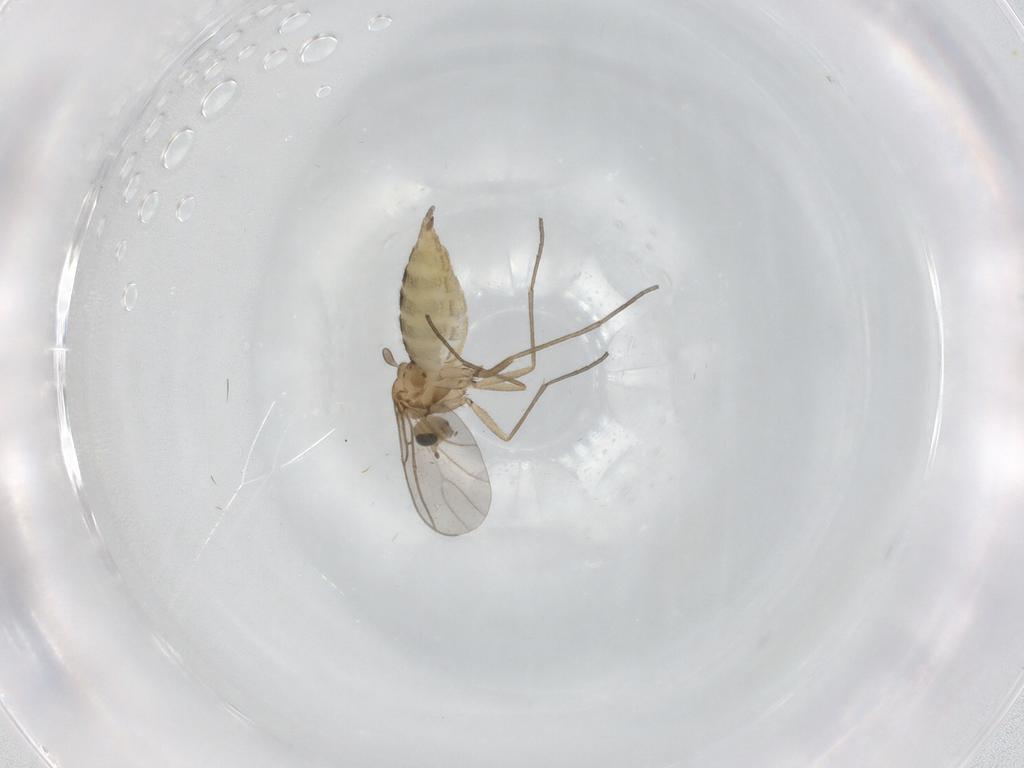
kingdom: Animalia
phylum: Arthropoda
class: Insecta
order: Diptera
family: Sciaridae
